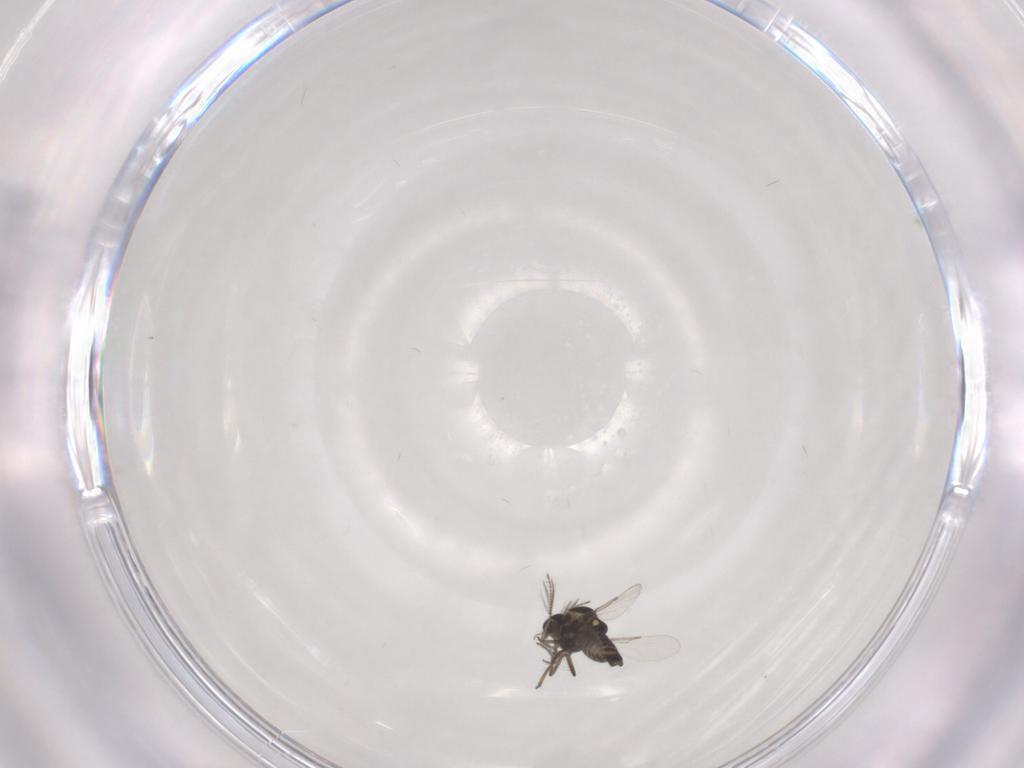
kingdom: Animalia
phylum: Arthropoda
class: Insecta
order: Diptera
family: Ceratopogonidae
